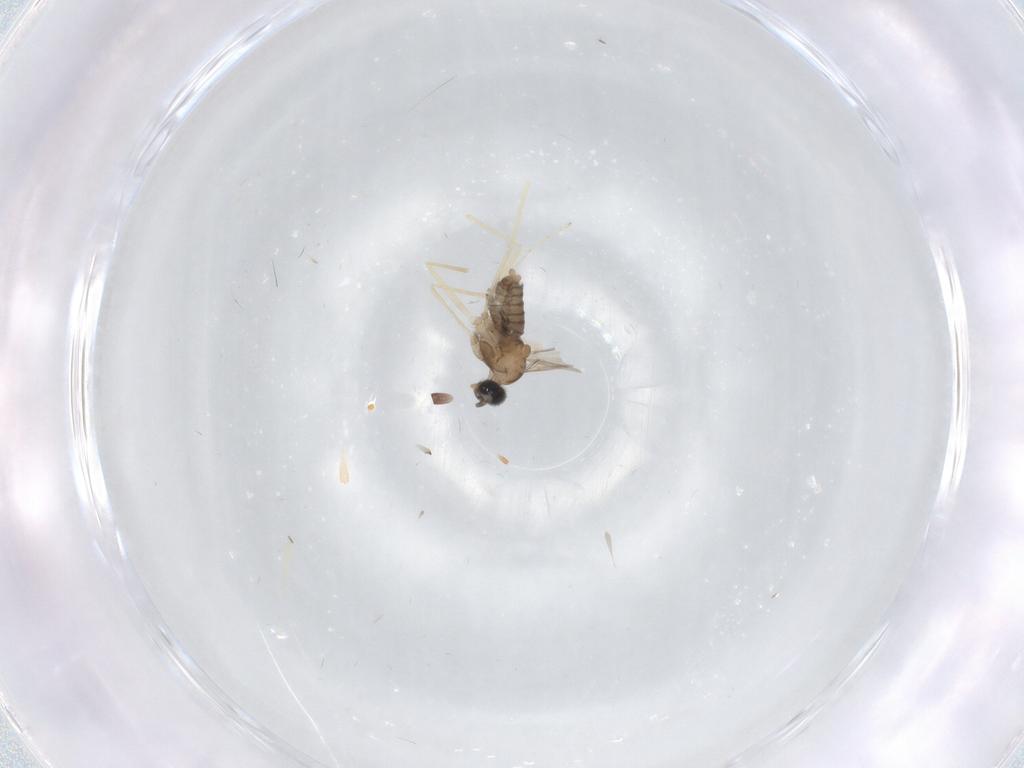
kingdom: Animalia
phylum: Arthropoda
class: Insecta
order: Diptera
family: Cecidomyiidae
